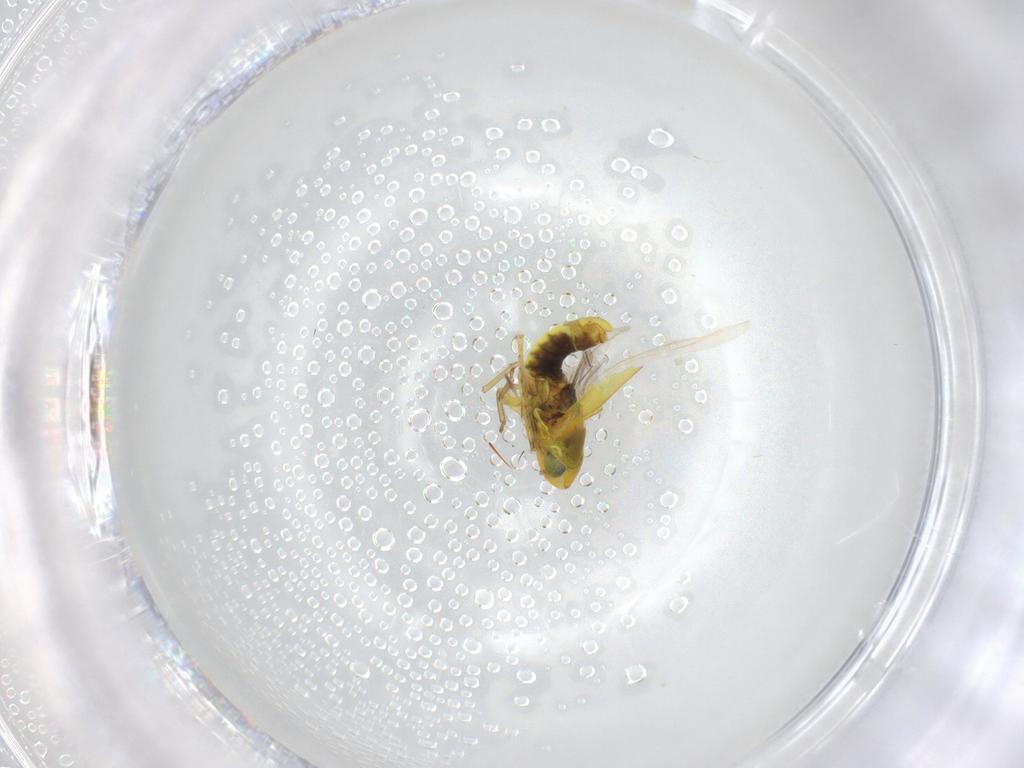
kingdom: Animalia
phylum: Arthropoda
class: Insecta
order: Hemiptera
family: Cicadellidae
